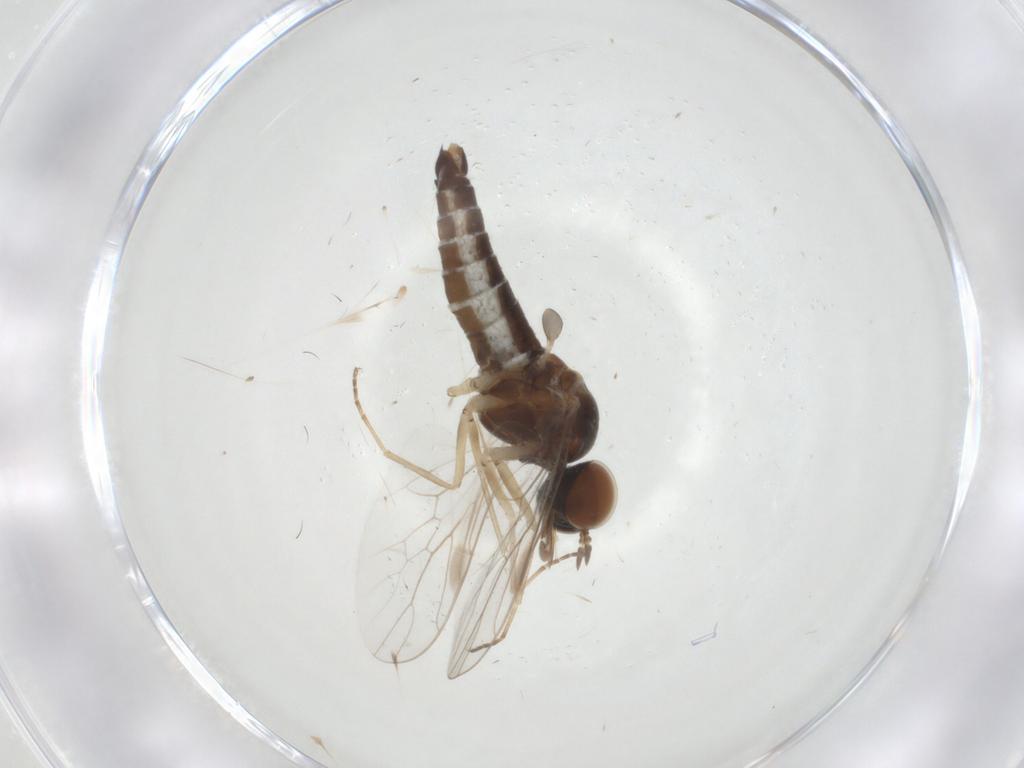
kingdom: Animalia
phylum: Arthropoda
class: Insecta
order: Diptera
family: Scenopinidae
